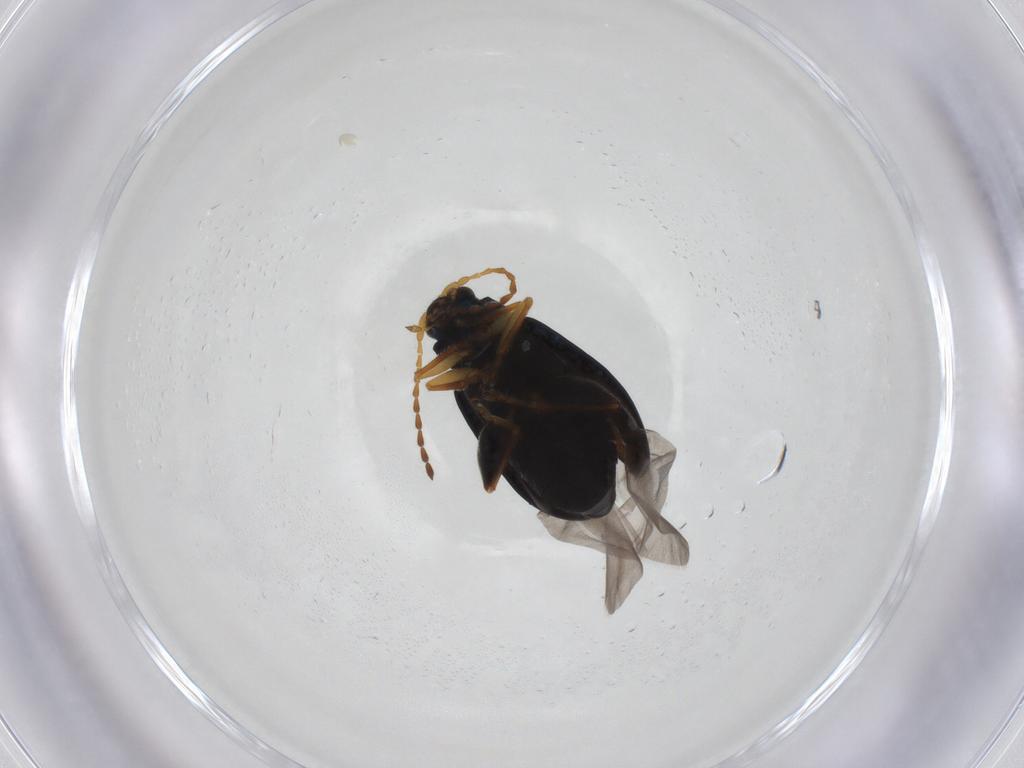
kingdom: Animalia
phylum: Arthropoda
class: Insecta
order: Coleoptera
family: Chrysomelidae
